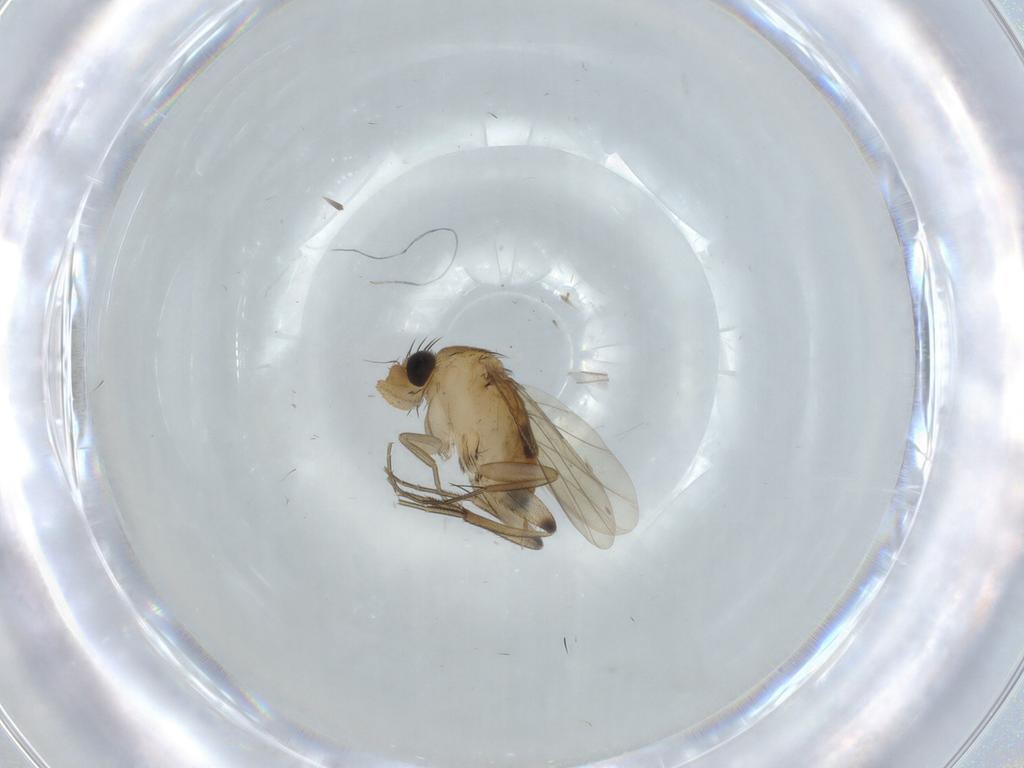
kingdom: Animalia
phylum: Arthropoda
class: Insecta
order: Diptera
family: Phoridae
